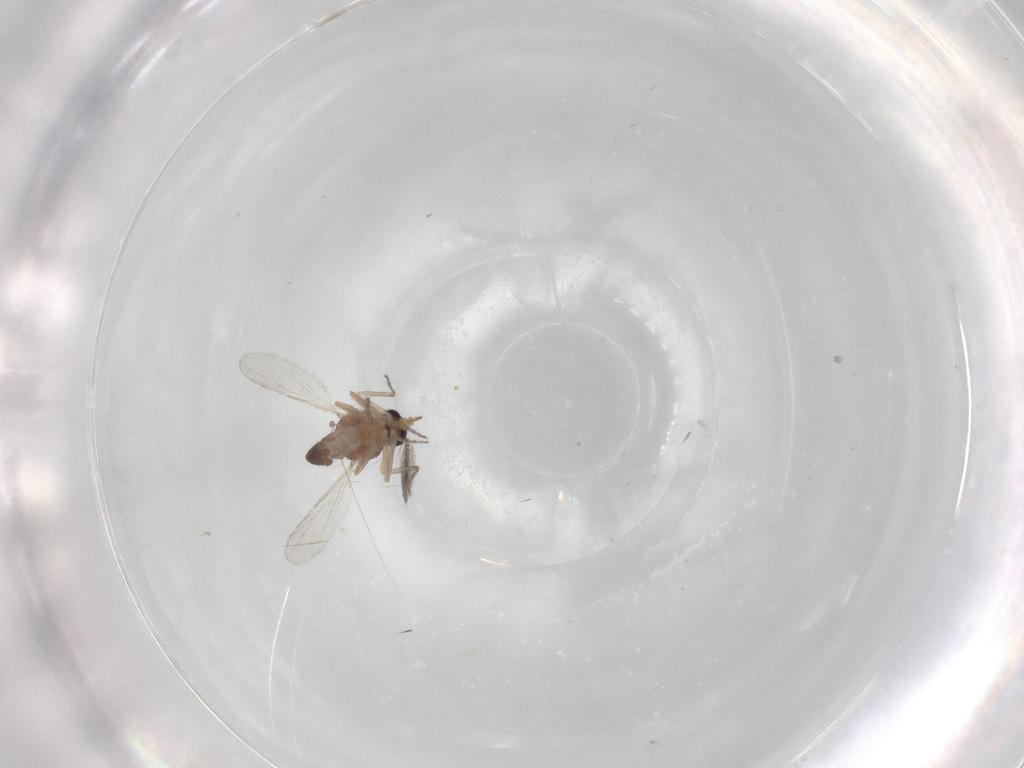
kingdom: Animalia
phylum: Arthropoda
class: Insecta
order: Diptera
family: Ceratopogonidae
